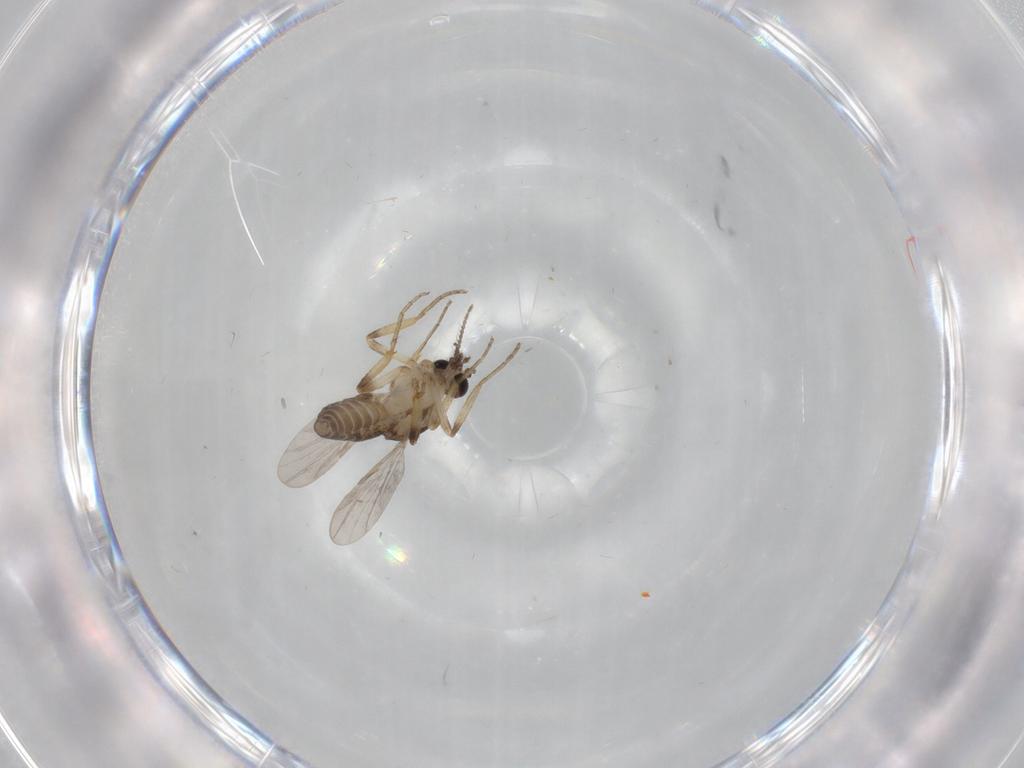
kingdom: Animalia
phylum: Arthropoda
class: Insecta
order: Diptera
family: Ceratopogonidae
